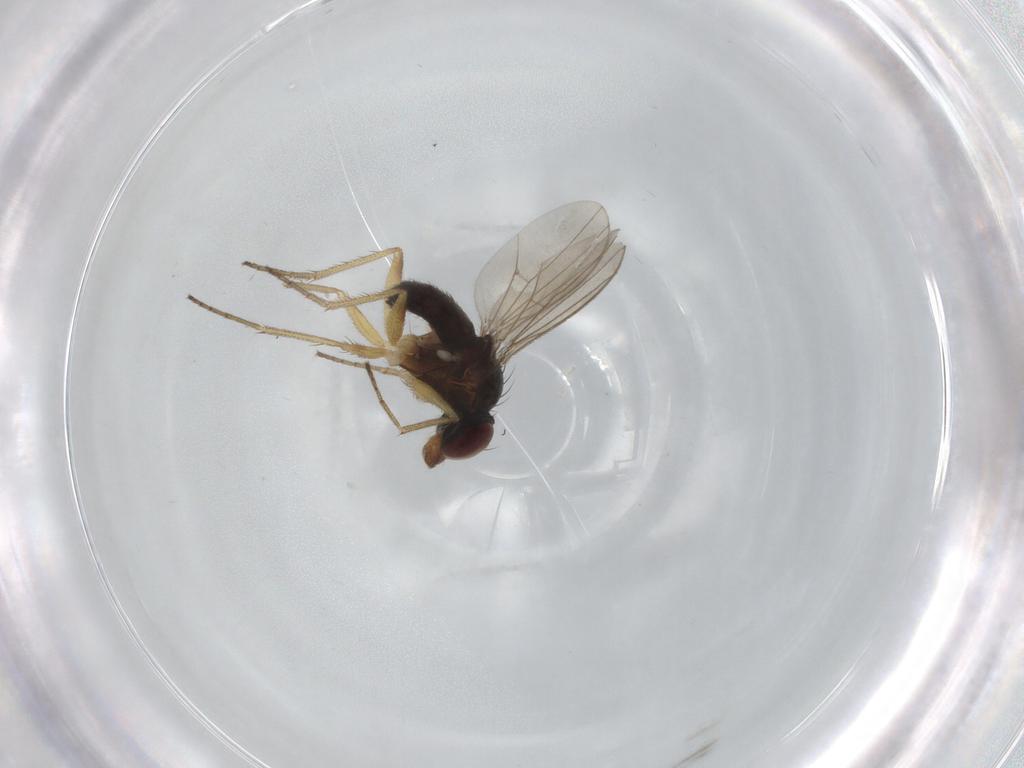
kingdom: Animalia
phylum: Arthropoda
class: Insecta
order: Diptera
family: Dolichopodidae
